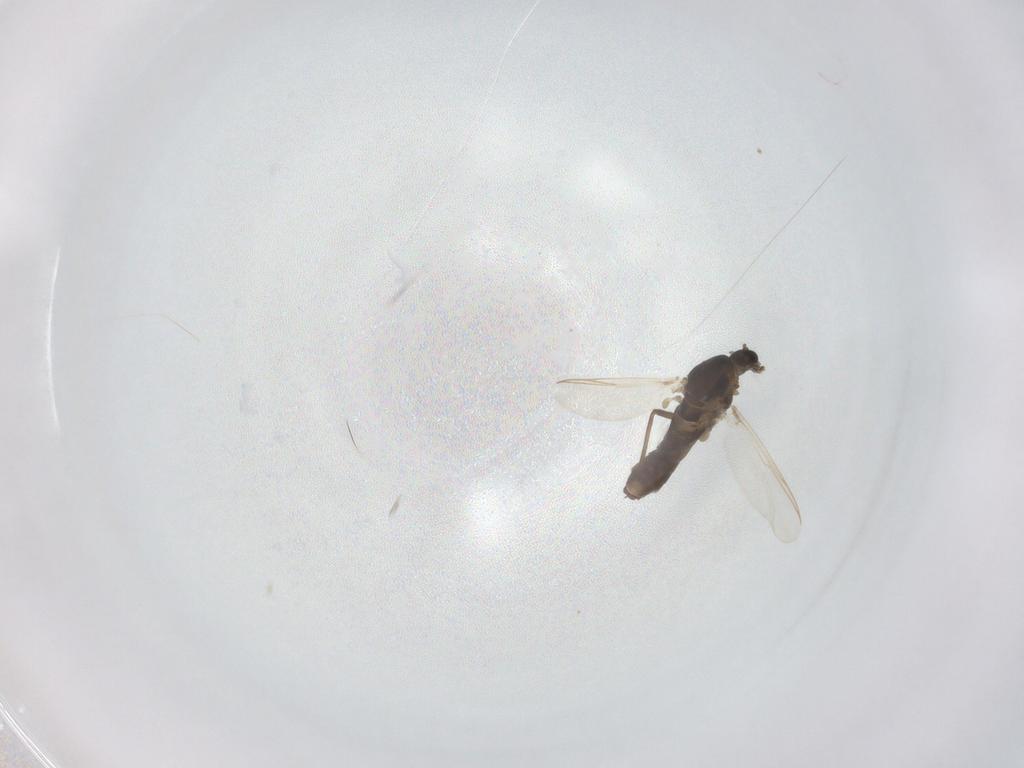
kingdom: Animalia
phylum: Arthropoda
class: Insecta
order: Diptera
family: Chironomidae
